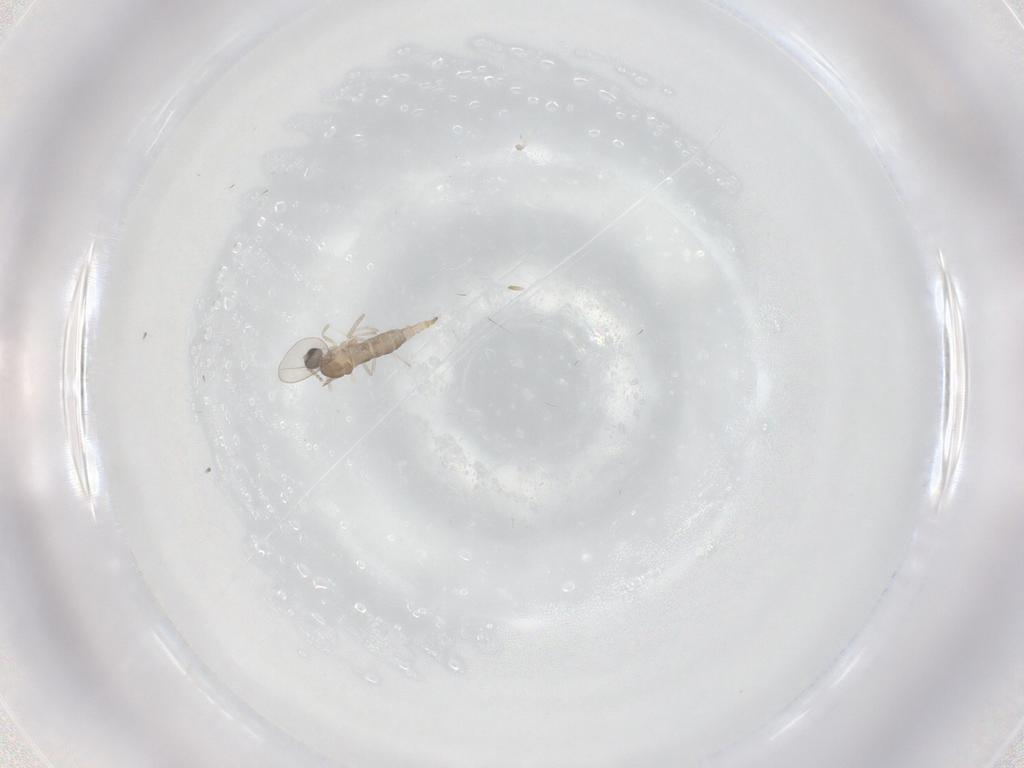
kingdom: Animalia
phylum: Arthropoda
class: Insecta
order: Diptera
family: Cecidomyiidae
